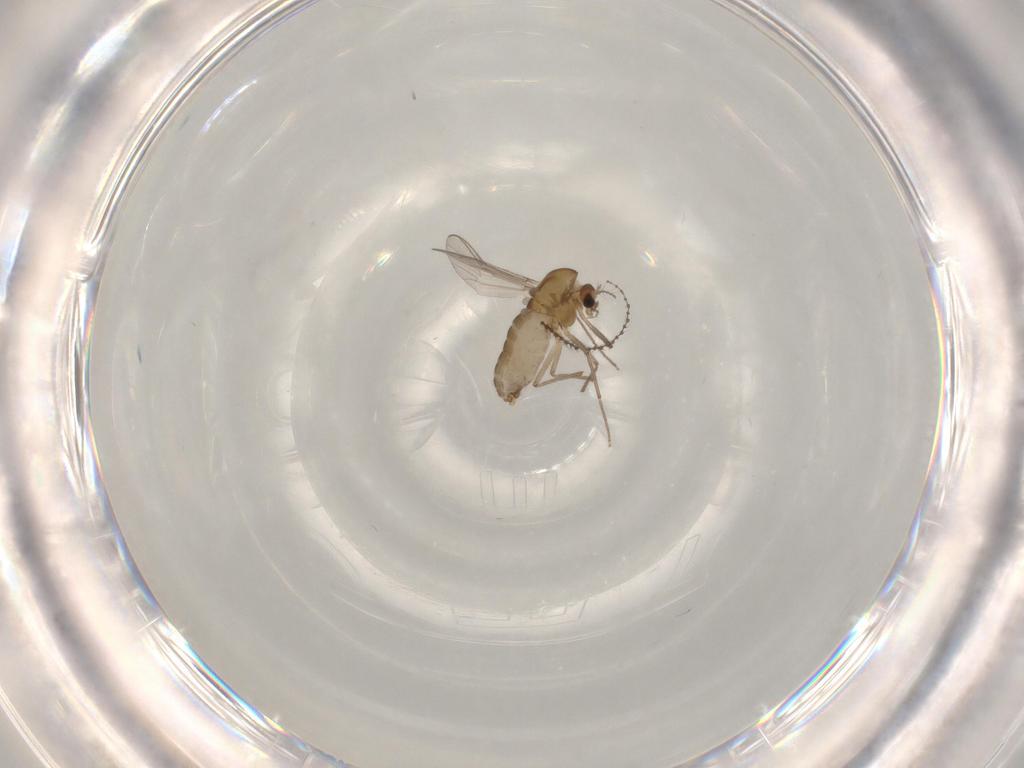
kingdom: Animalia
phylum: Arthropoda
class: Insecta
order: Diptera
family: Chironomidae
